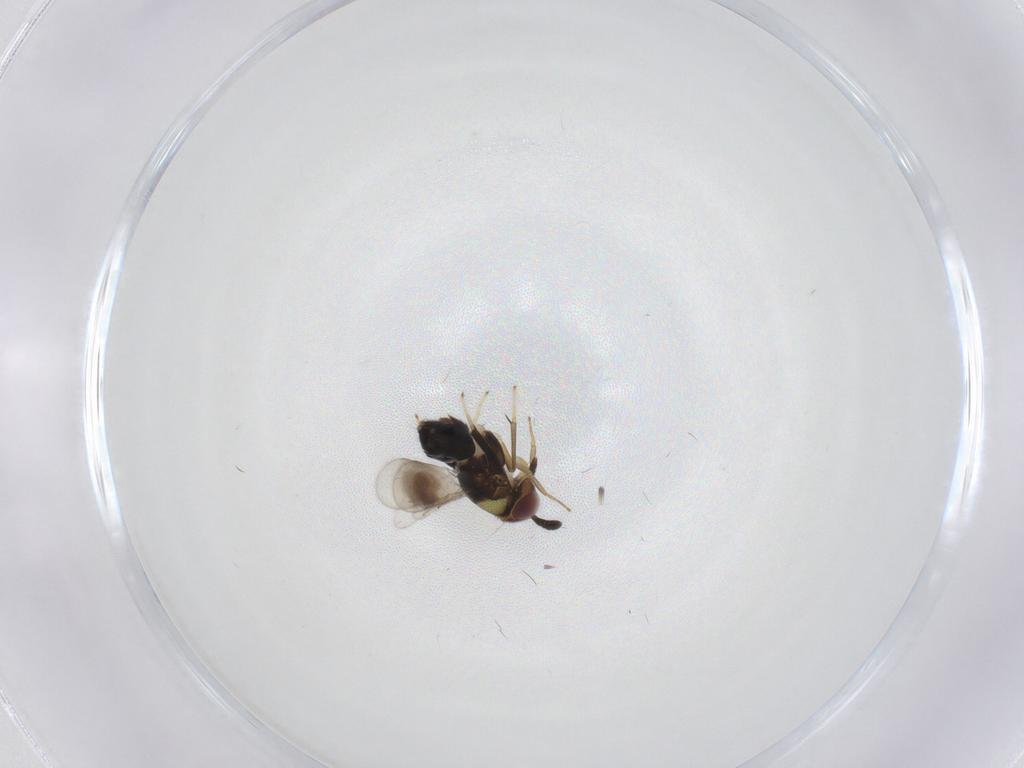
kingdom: Animalia
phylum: Arthropoda
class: Insecta
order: Hymenoptera
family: Aphelinidae
